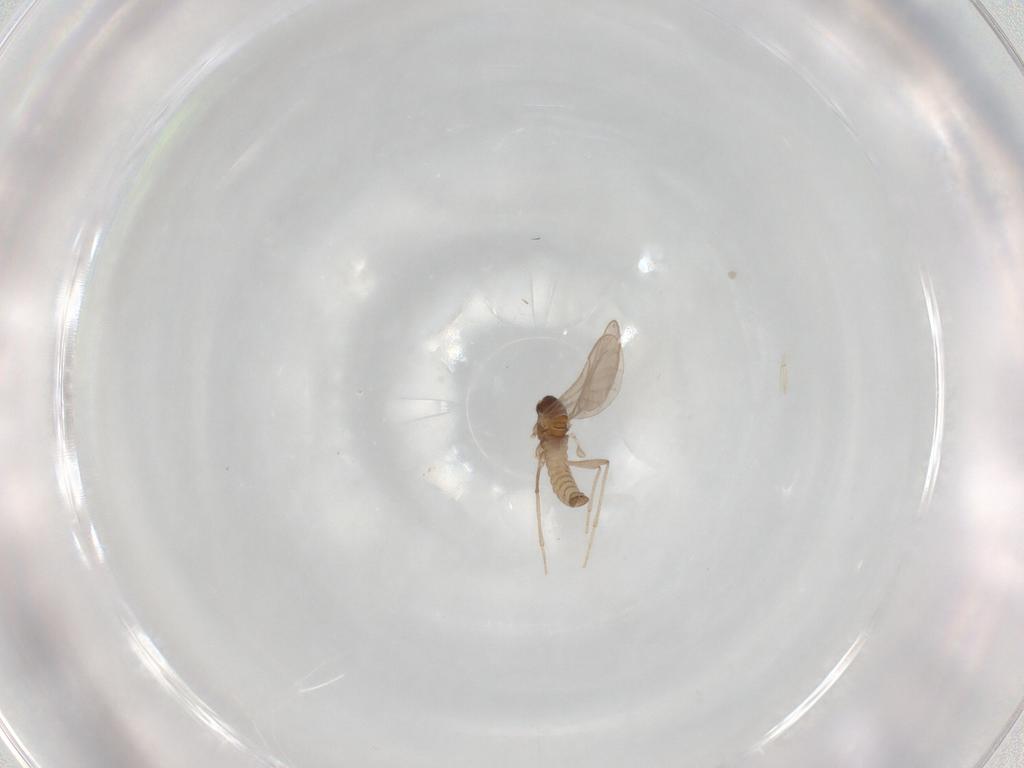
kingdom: Animalia
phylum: Arthropoda
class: Insecta
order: Diptera
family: Cecidomyiidae
